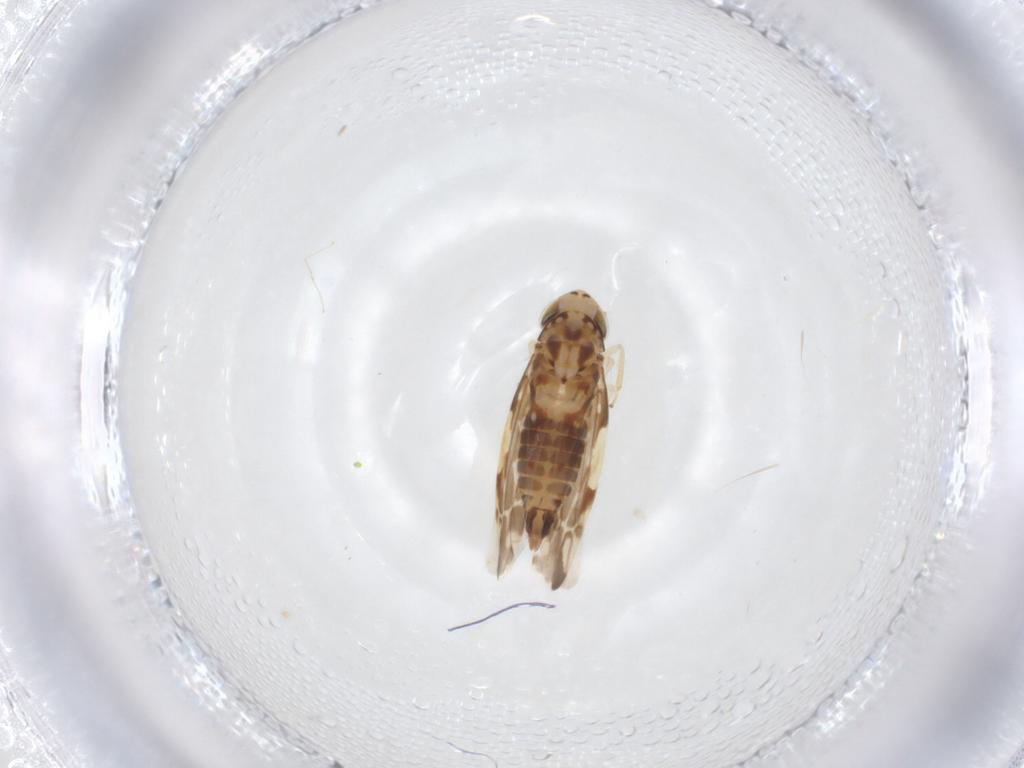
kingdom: Animalia
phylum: Arthropoda
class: Insecta
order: Hemiptera
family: Cicadellidae
